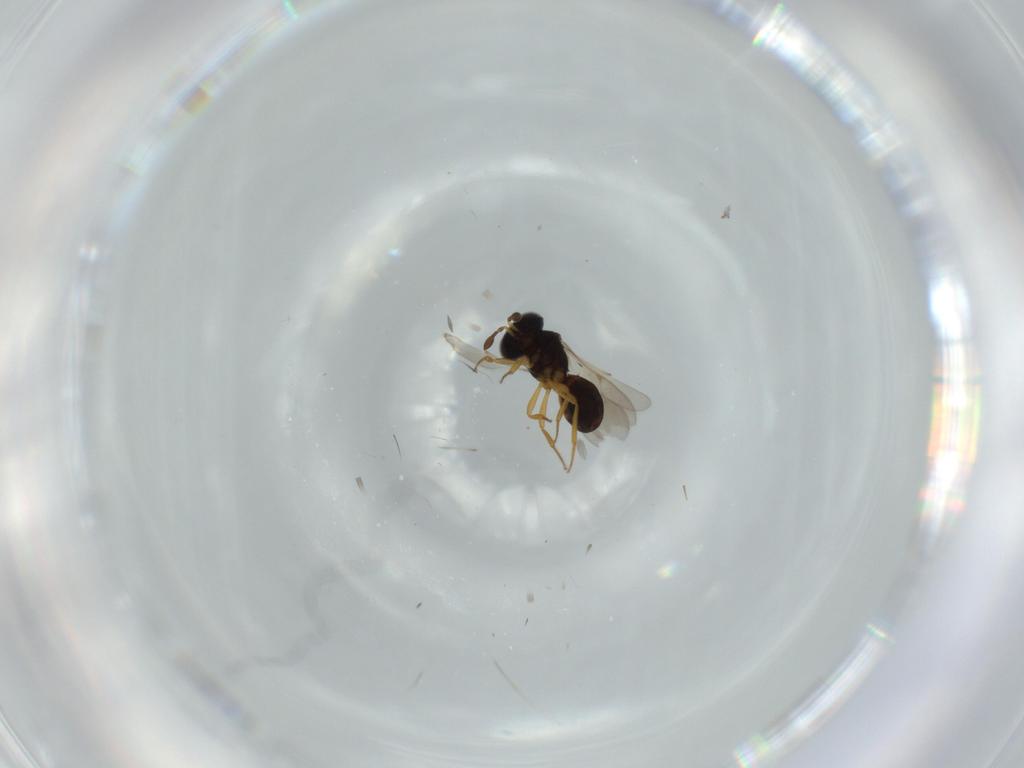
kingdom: Animalia
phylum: Arthropoda
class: Insecta
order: Hymenoptera
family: Scelionidae
